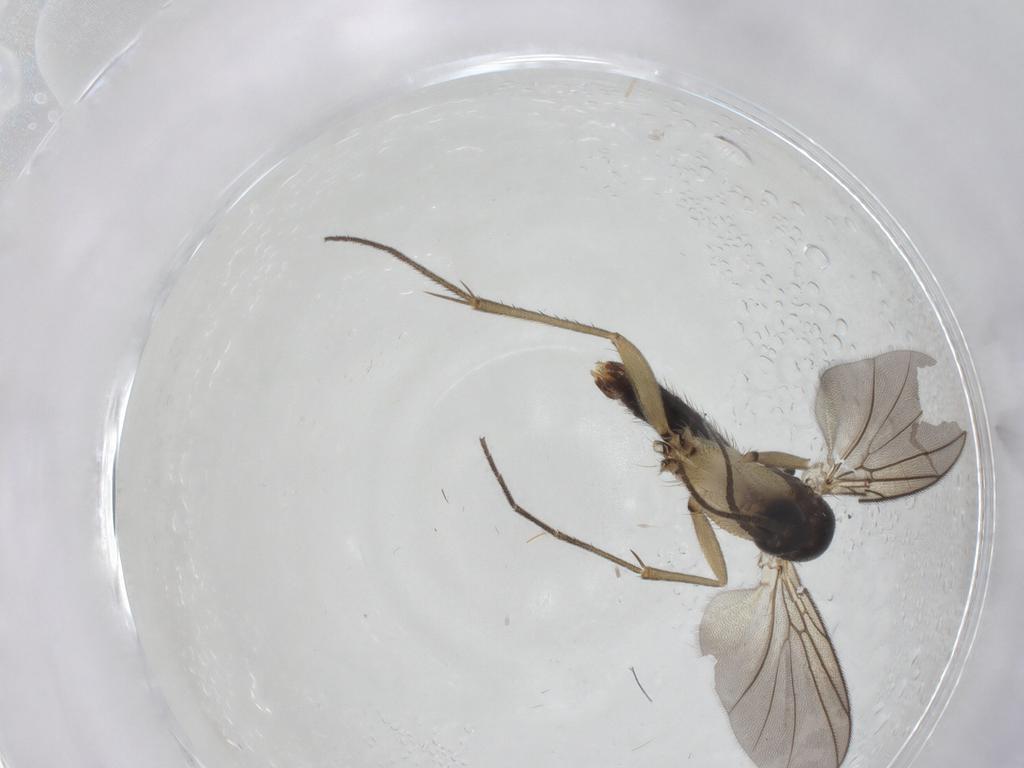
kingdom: Animalia
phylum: Arthropoda
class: Insecta
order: Diptera
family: Mycetophilidae
